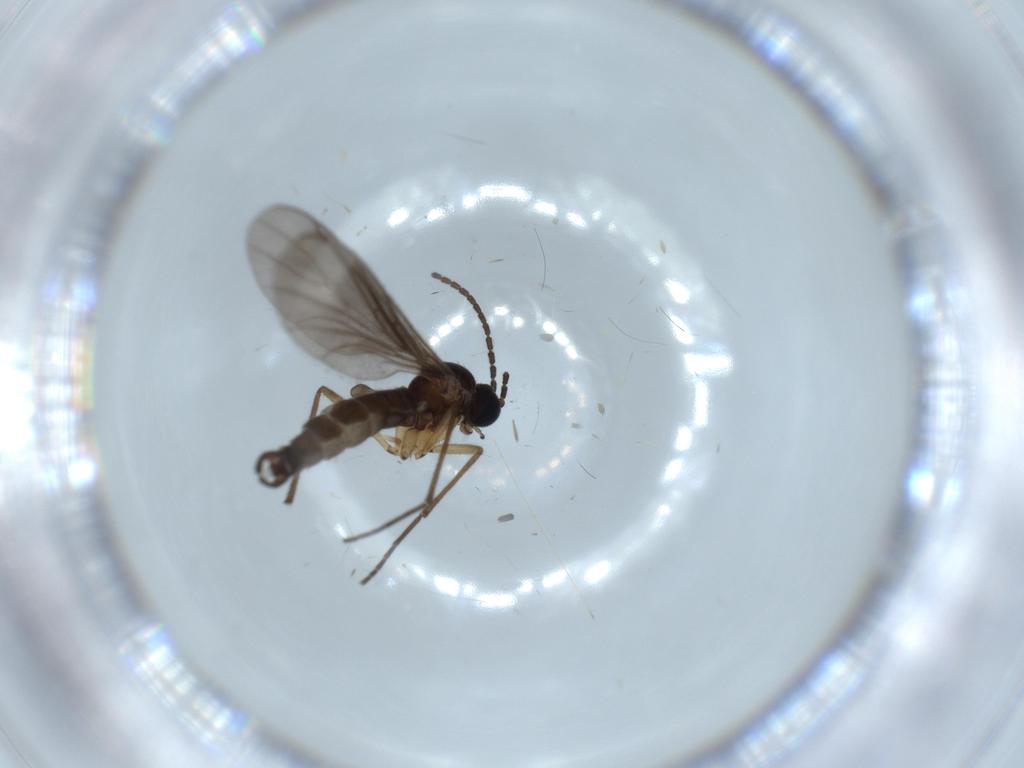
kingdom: Animalia
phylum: Arthropoda
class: Insecta
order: Diptera
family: Sciaridae
